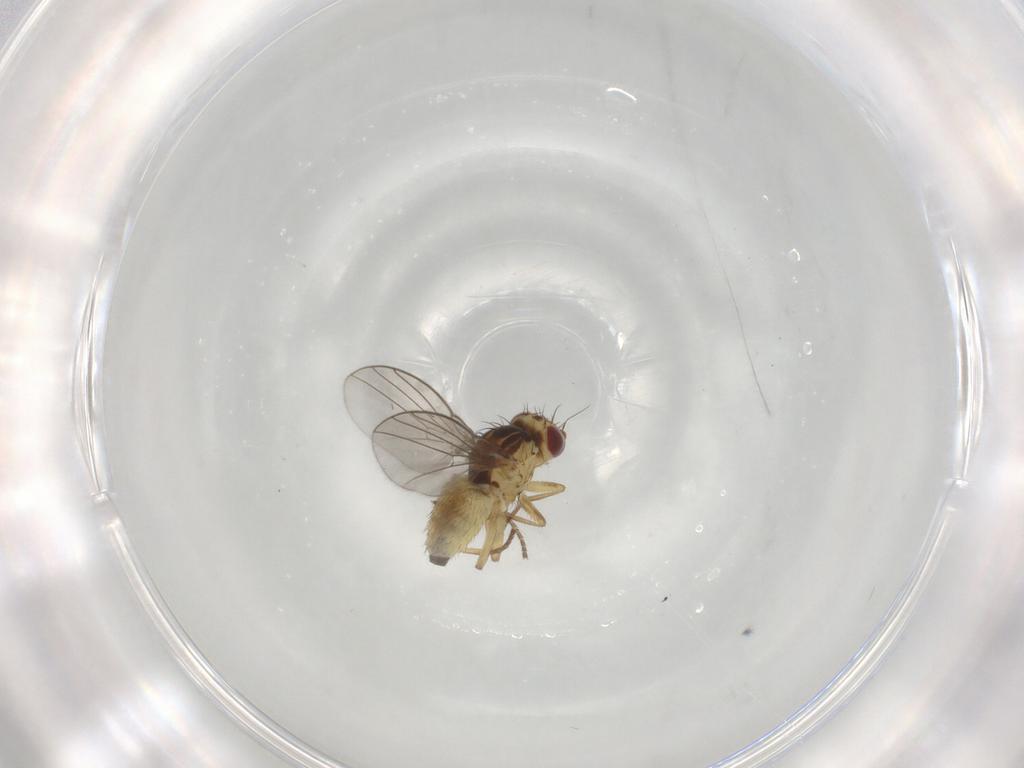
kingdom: Animalia
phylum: Arthropoda
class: Insecta
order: Diptera
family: Agromyzidae
